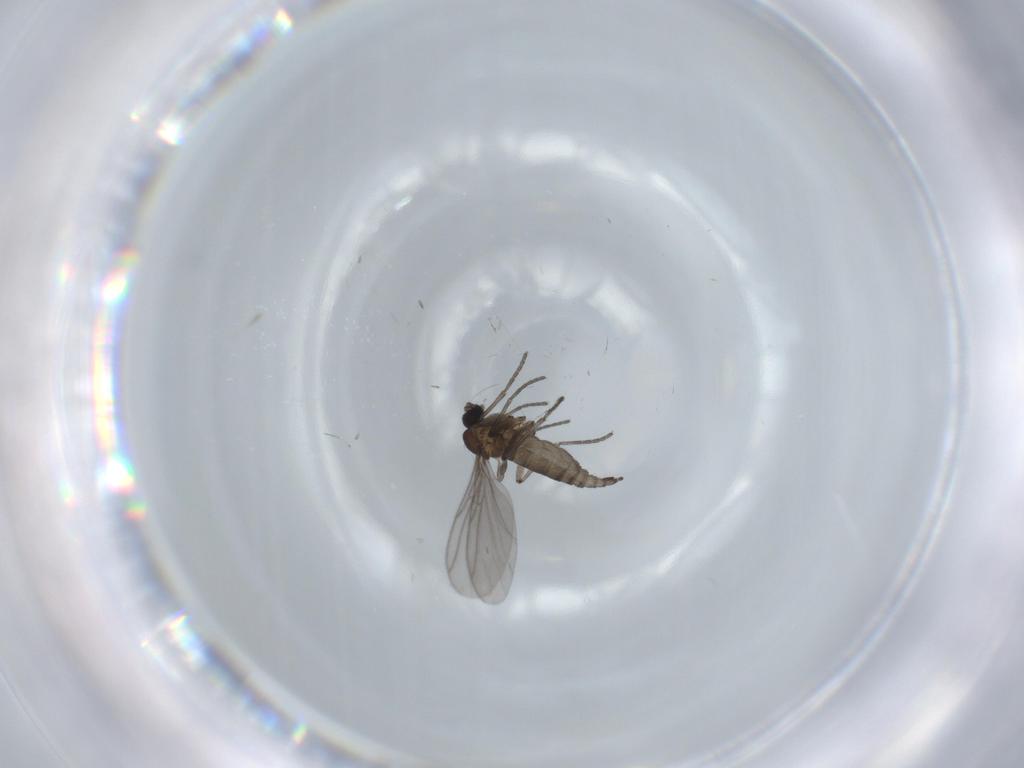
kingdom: Animalia
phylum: Arthropoda
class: Insecta
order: Diptera
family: Sciaridae
